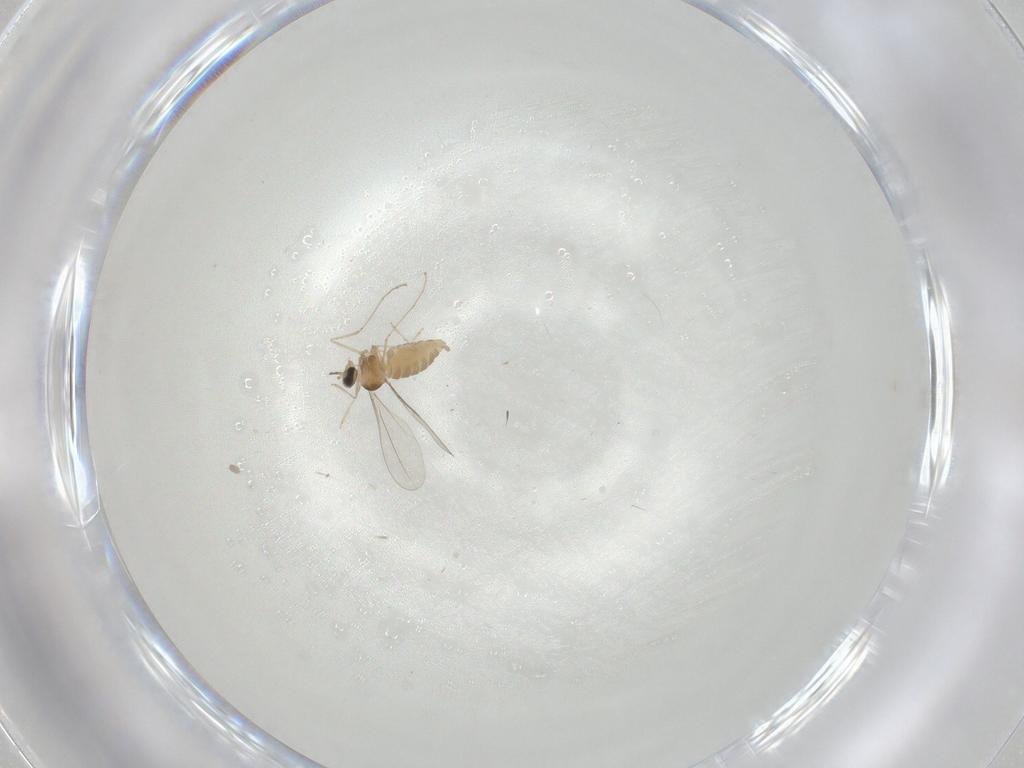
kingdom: Animalia
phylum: Arthropoda
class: Insecta
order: Diptera
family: Cecidomyiidae
